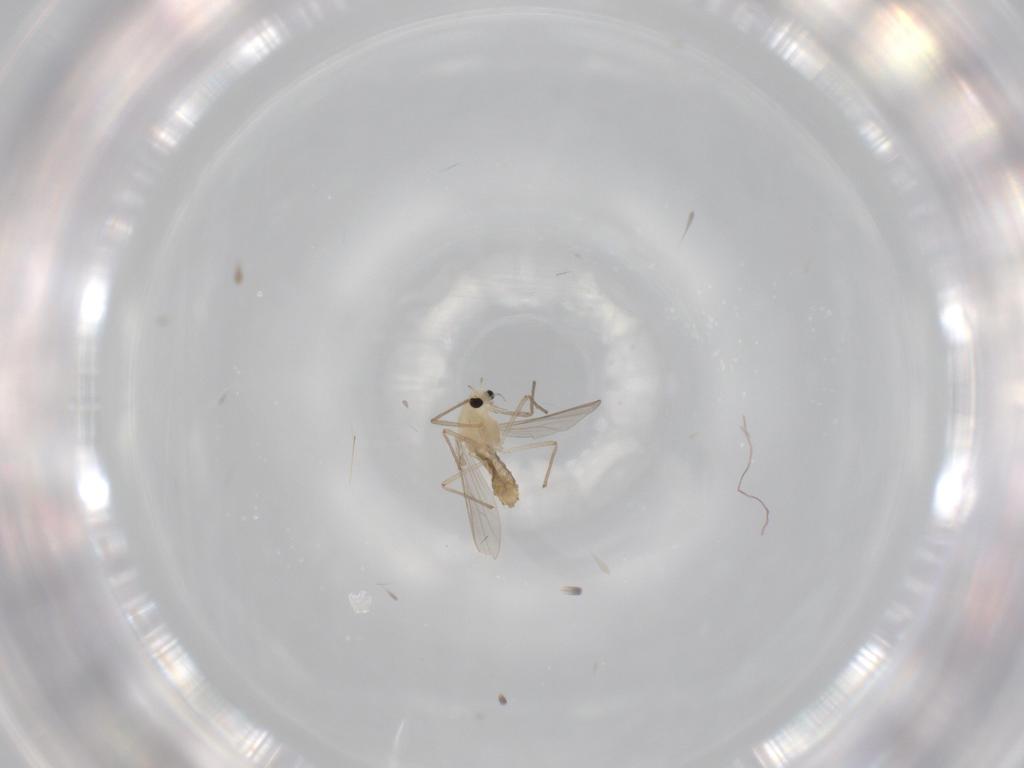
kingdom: Animalia
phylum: Arthropoda
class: Insecta
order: Diptera
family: Chironomidae
